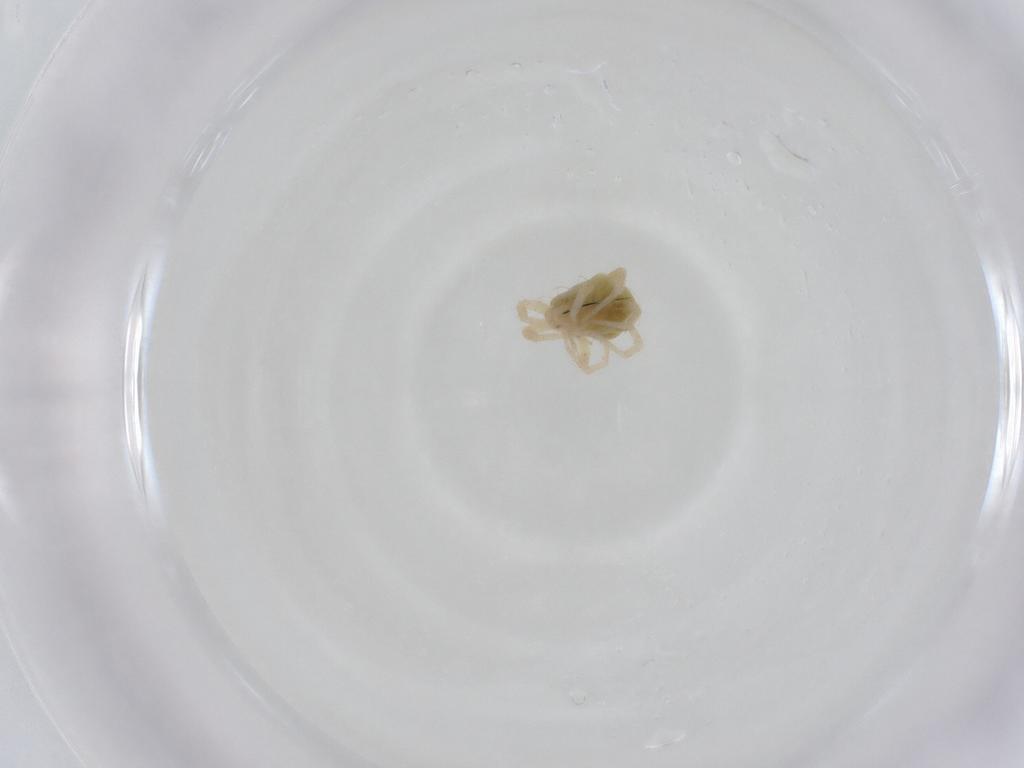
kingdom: Animalia
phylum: Arthropoda
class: Arachnida
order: Trombidiformes
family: Anystidae
